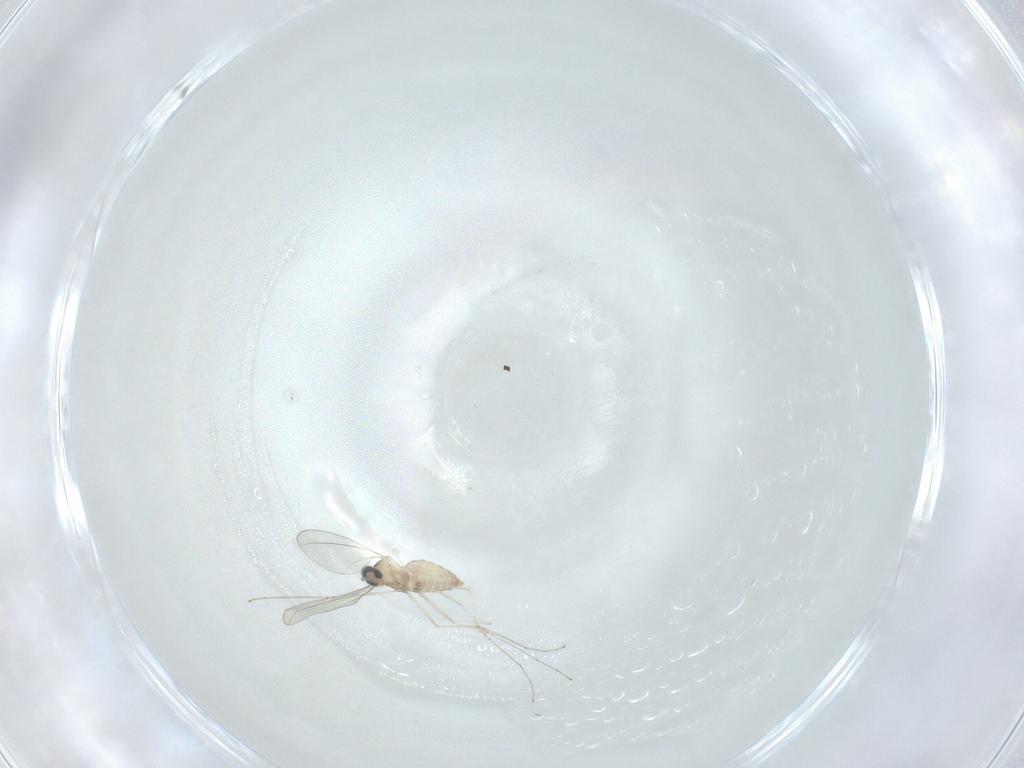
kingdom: Animalia
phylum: Arthropoda
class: Insecta
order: Diptera
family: Cecidomyiidae
